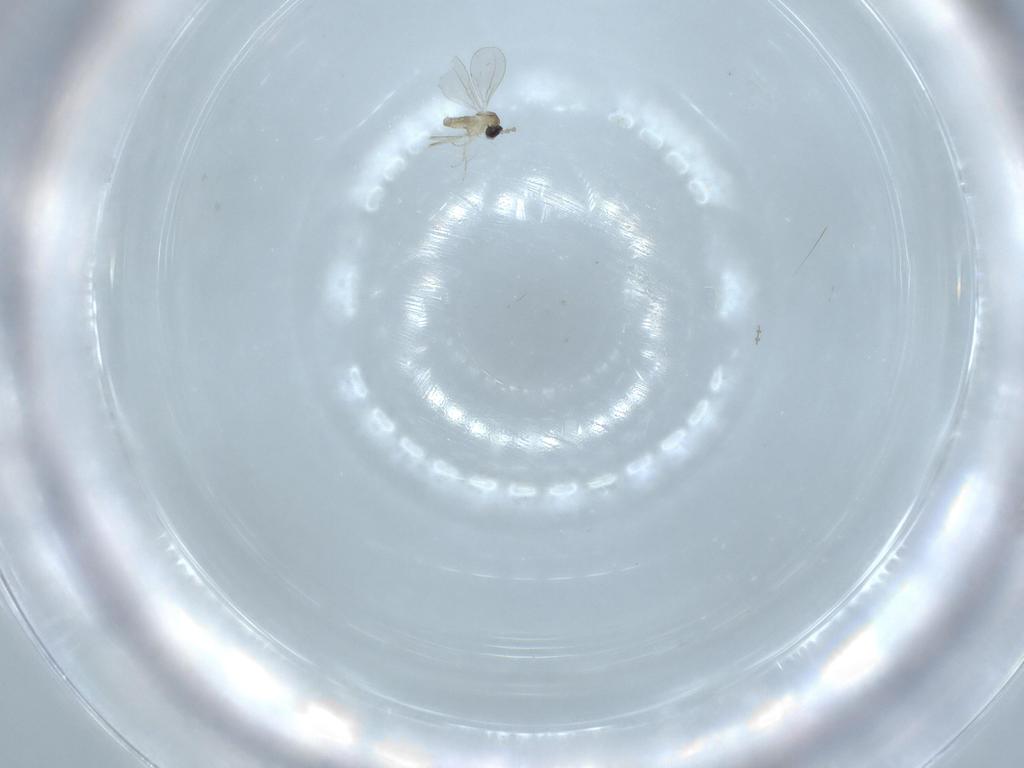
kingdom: Animalia
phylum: Arthropoda
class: Insecta
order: Diptera
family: Cecidomyiidae
